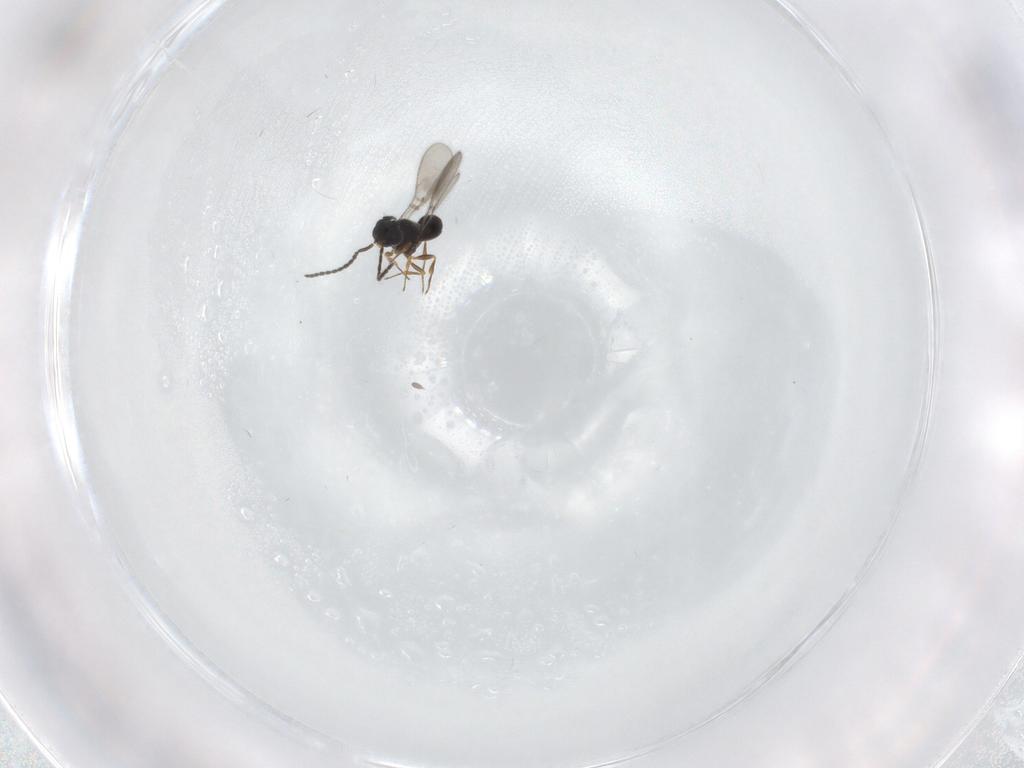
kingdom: Animalia
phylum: Arthropoda
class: Insecta
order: Hymenoptera
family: Scelionidae
